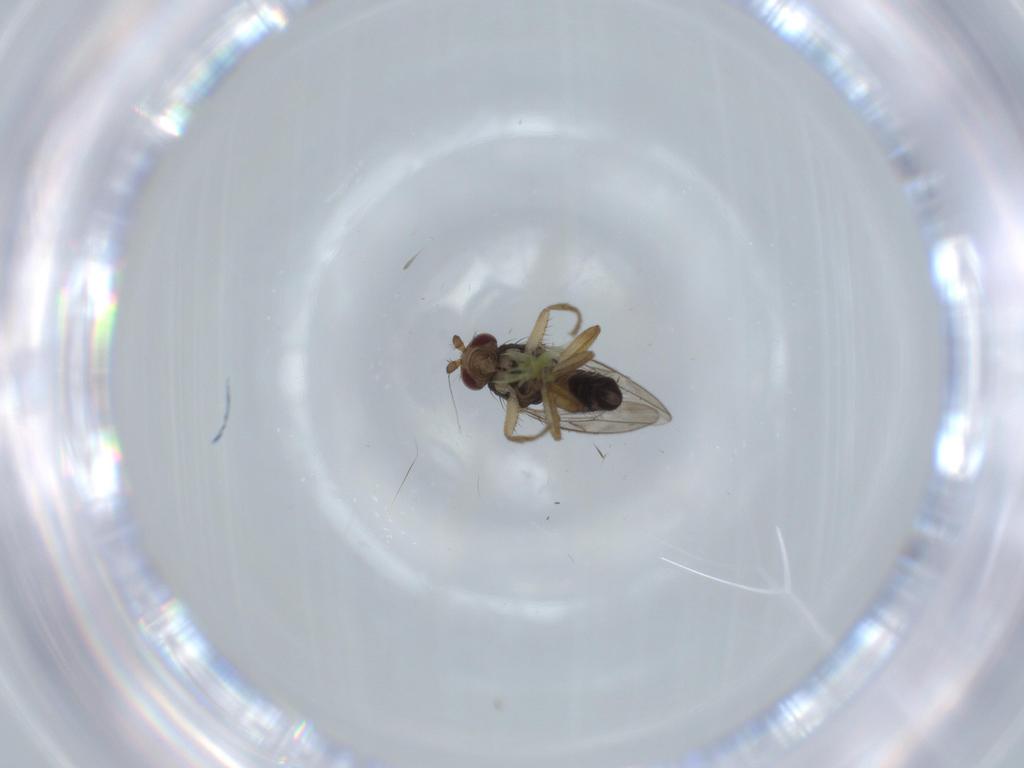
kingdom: Animalia
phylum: Arthropoda
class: Insecta
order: Diptera
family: Sphaeroceridae
